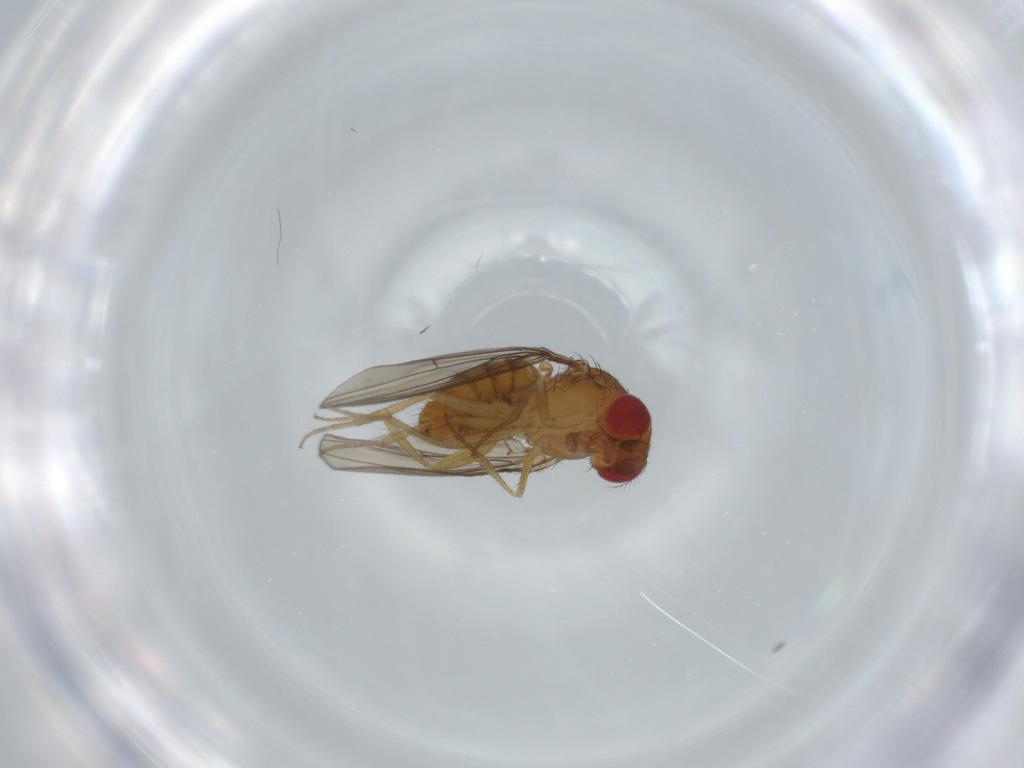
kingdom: Animalia
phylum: Arthropoda
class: Insecta
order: Diptera
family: Drosophilidae
